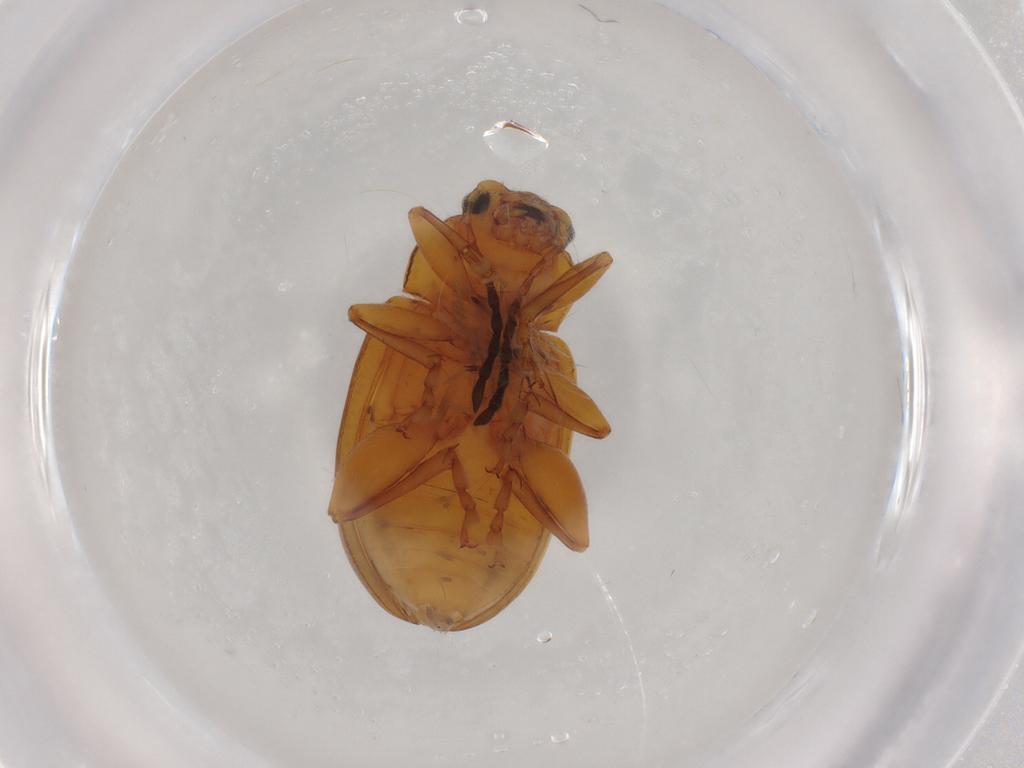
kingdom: Animalia
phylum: Arthropoda
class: Insecta
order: Coleoptera
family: Chrysomelidae
